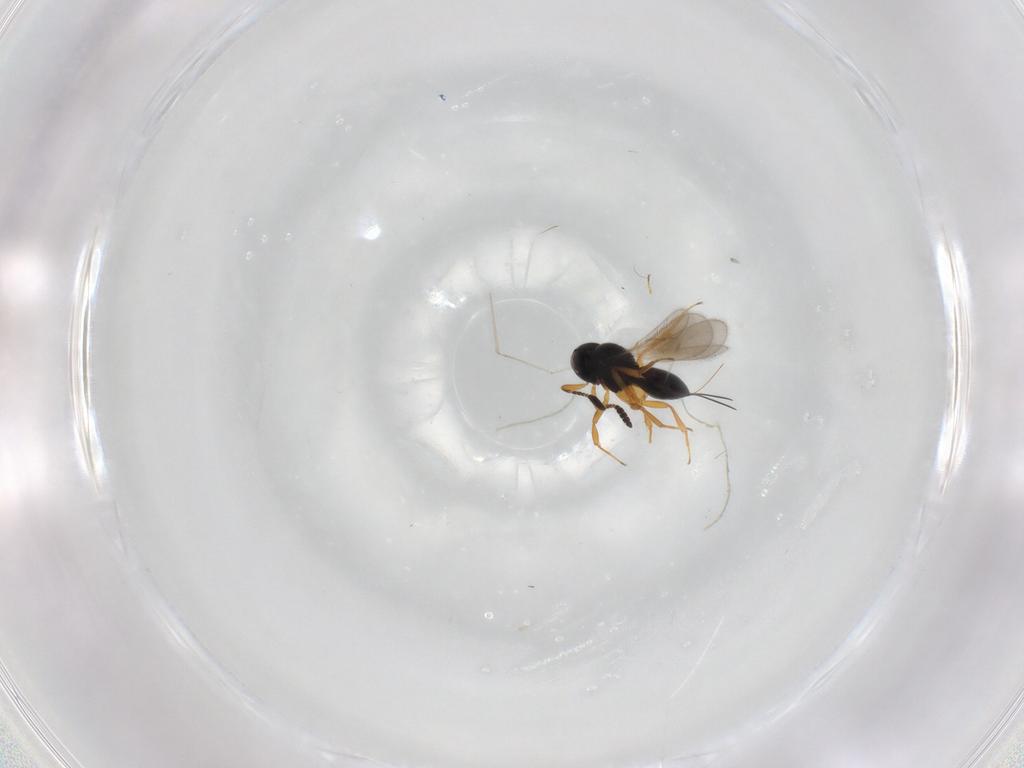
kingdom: Animalia
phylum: Arthropoda
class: Insecta
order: Hymenoptera
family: Scelionidae
